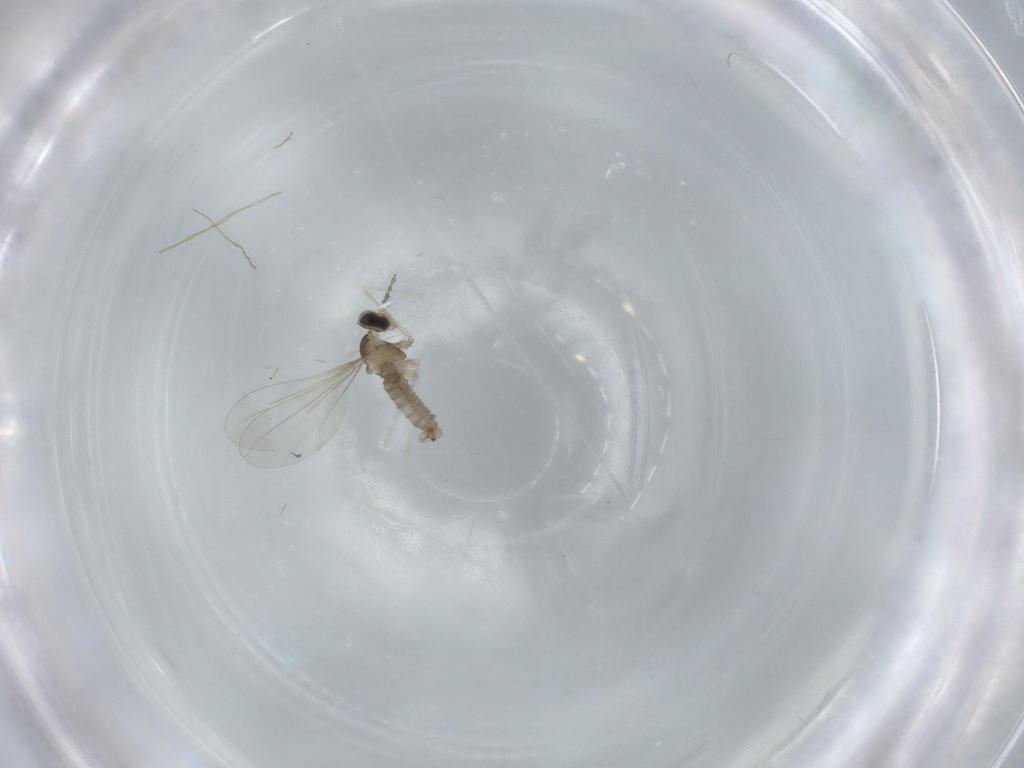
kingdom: Animalia
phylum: Arthropoda
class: Insecta
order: Diptera
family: Cecidomyiidae
